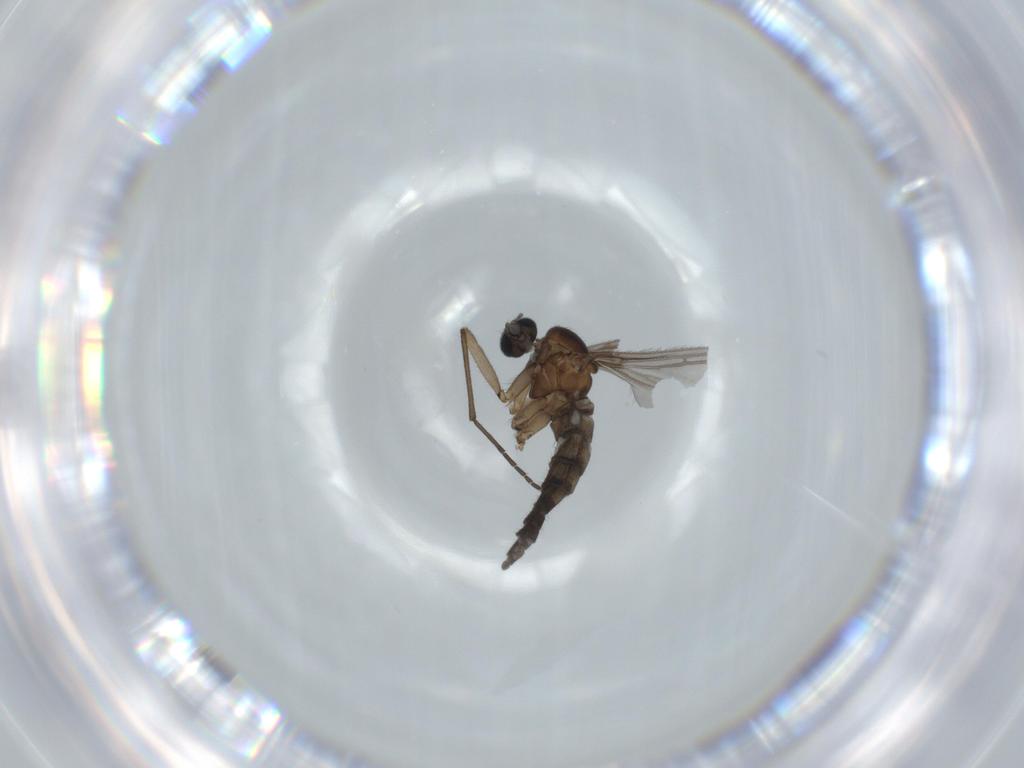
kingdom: Animalia
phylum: Arthropoda
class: Insecta
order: Diptera
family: Sciaridae
